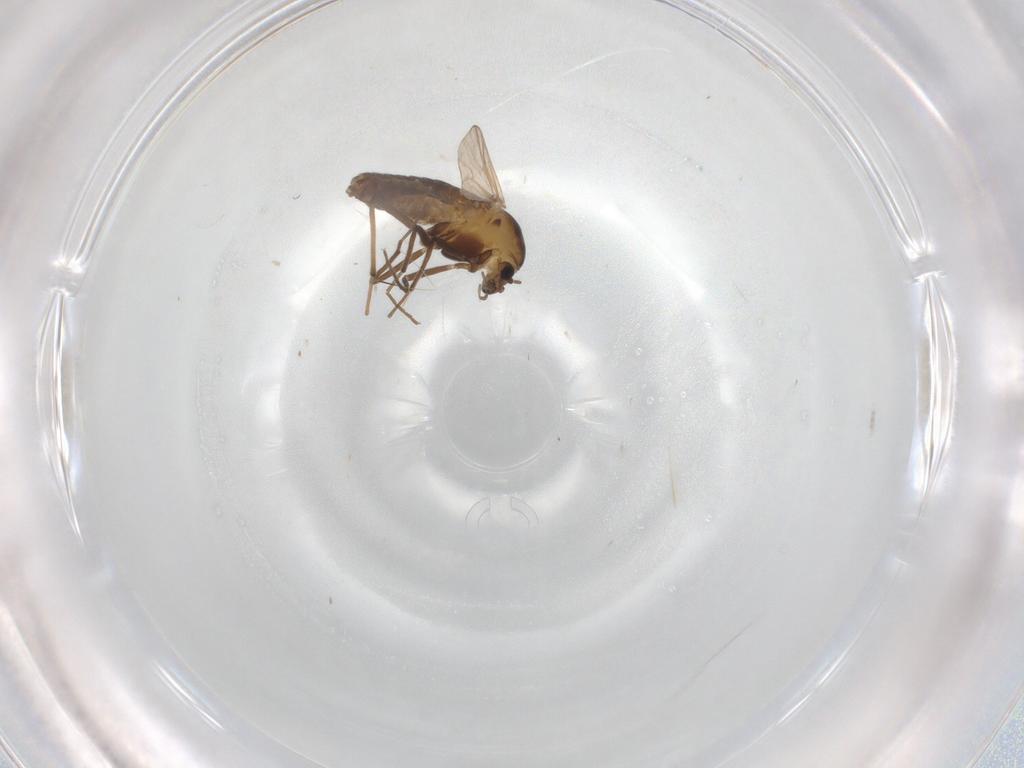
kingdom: Animalia
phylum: Arthropoda
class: Insecta
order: Diptera
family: Chironomidae
